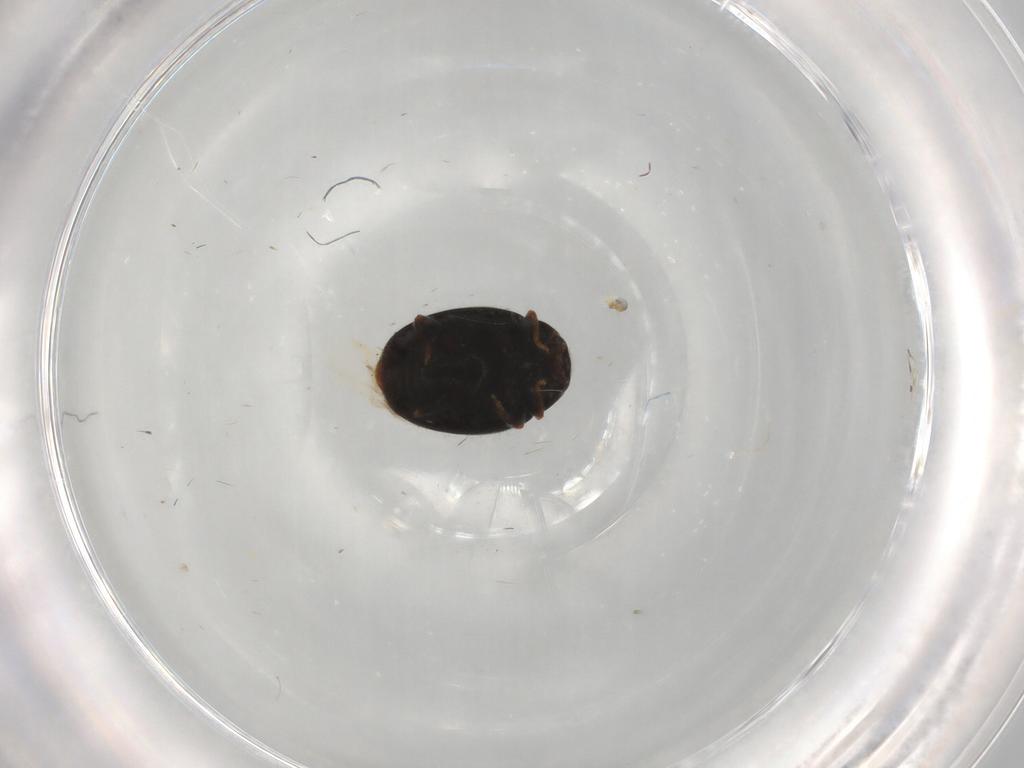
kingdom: Animalia
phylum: Arthropoda
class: Insecta
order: Coleoptera
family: Coccinellidae
